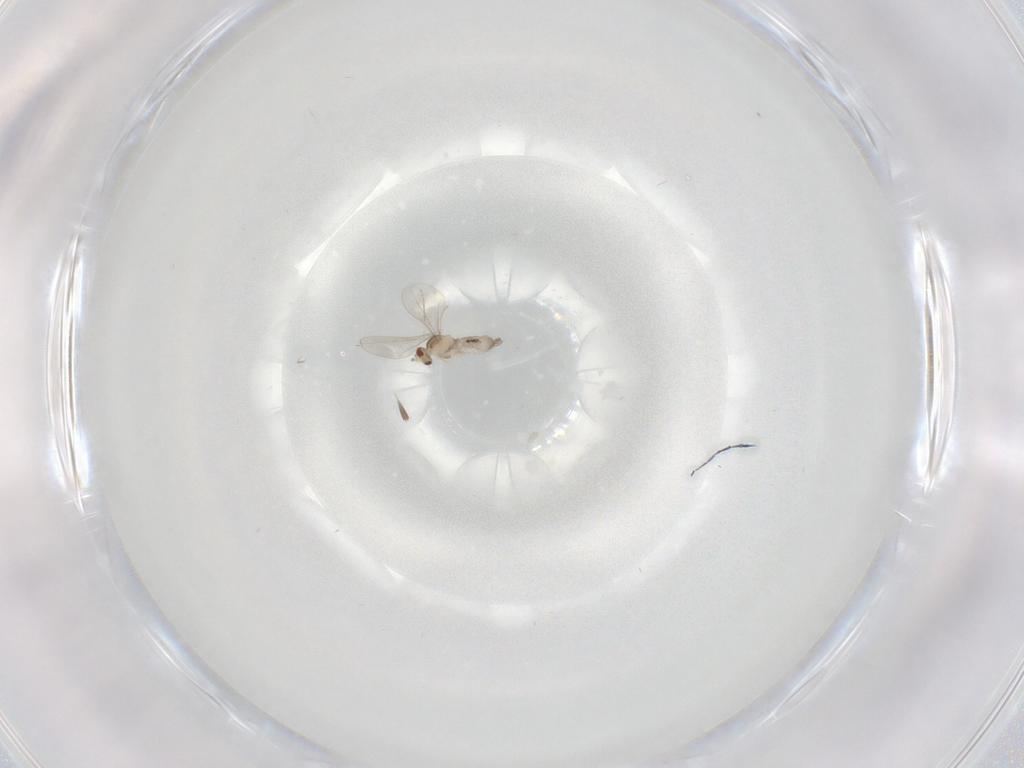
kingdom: Animalia
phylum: Arthropoda
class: Insecta
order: Diptera
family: Cecidomyiidae
